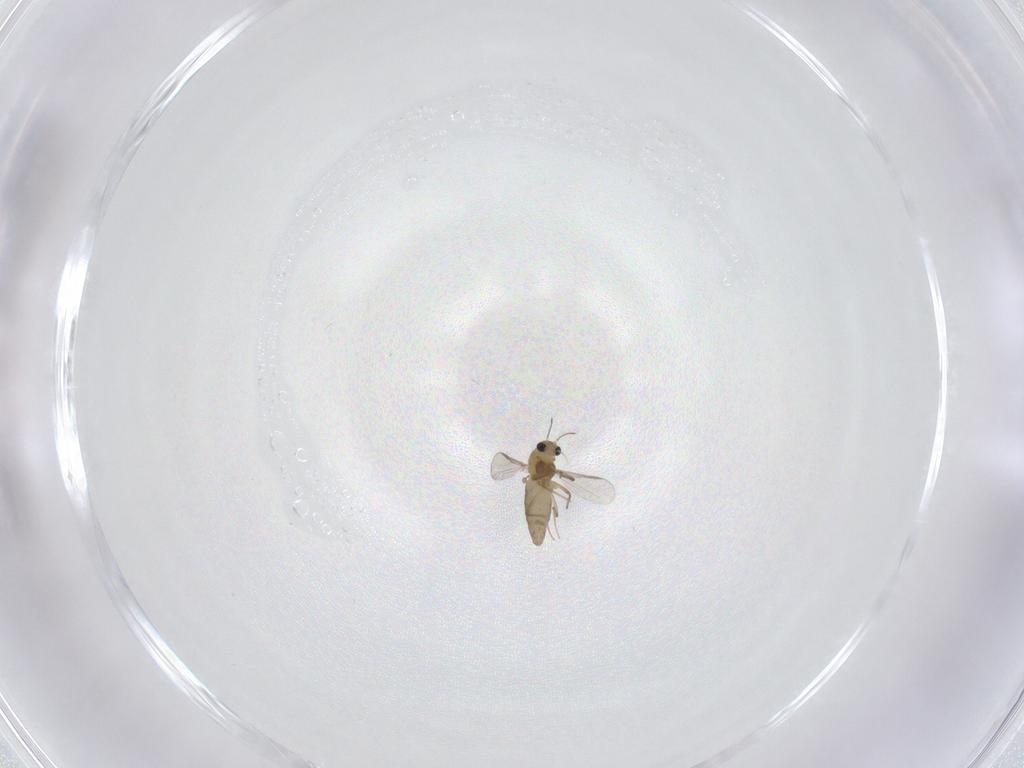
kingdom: Animalia
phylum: Arthropoda
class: Insecta
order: Diptera
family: Chironomidae
